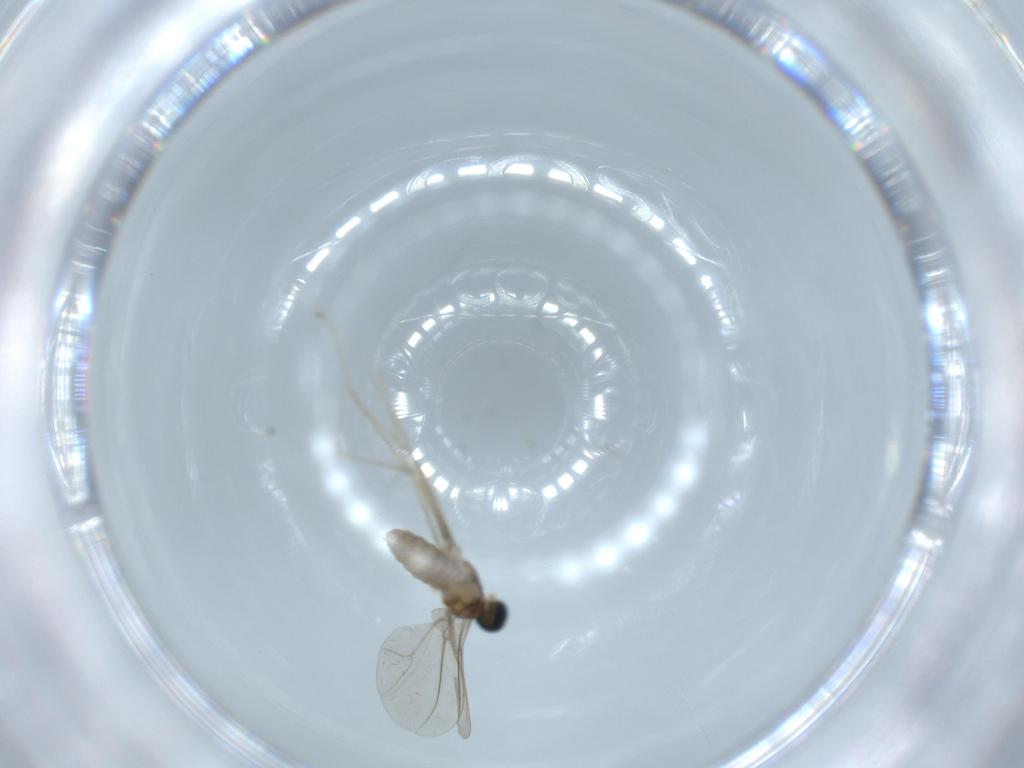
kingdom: Animalia
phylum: Arthropoda
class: Insecta
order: Diptera
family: Cecidomyiidae
